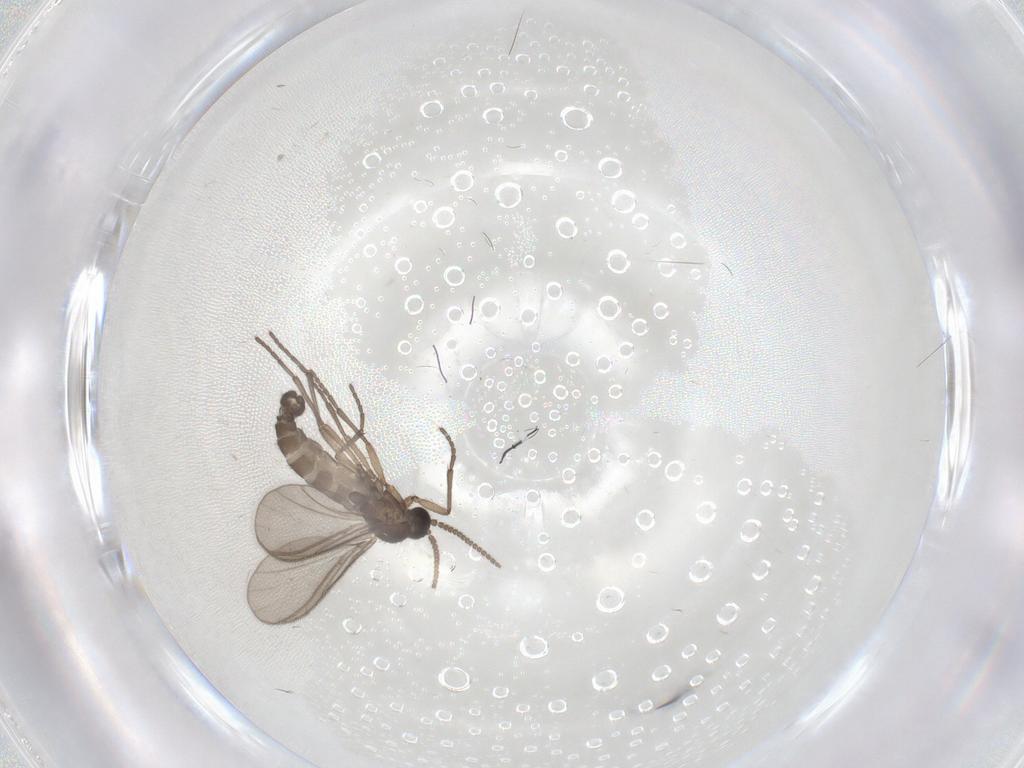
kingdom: Animalia
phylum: Arthropoda
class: Insecta
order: Diptera
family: Sciaridae
